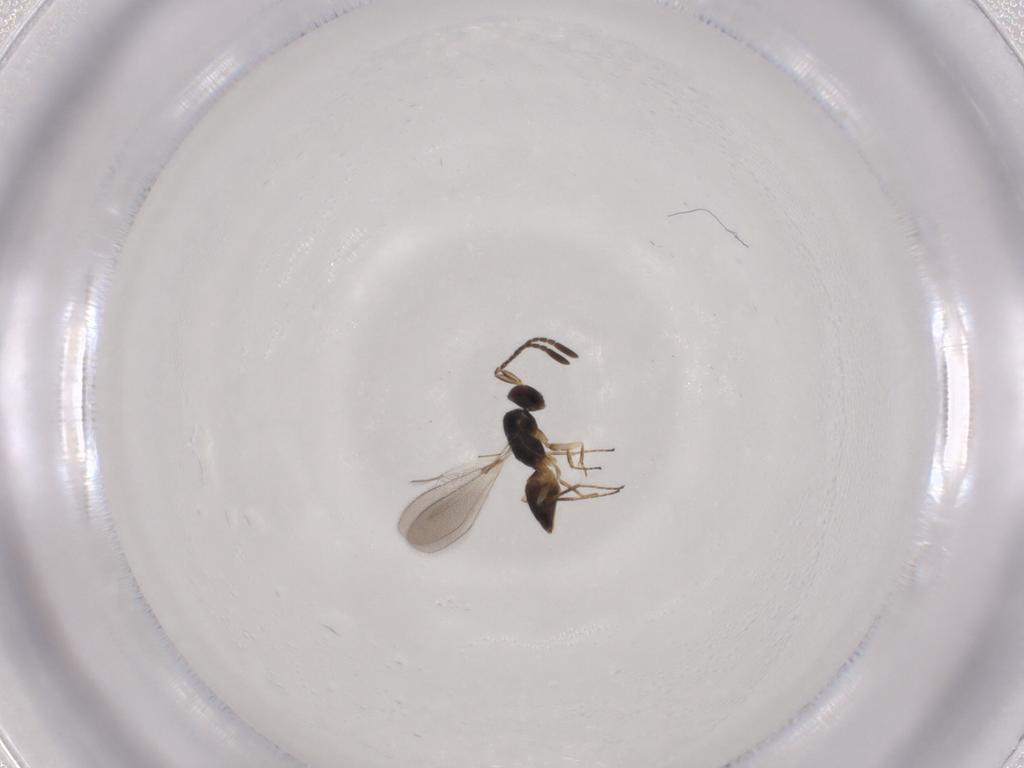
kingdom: Animalia
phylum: Arthropoda
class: Insecta
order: Hymenoptera
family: Mymaridae
